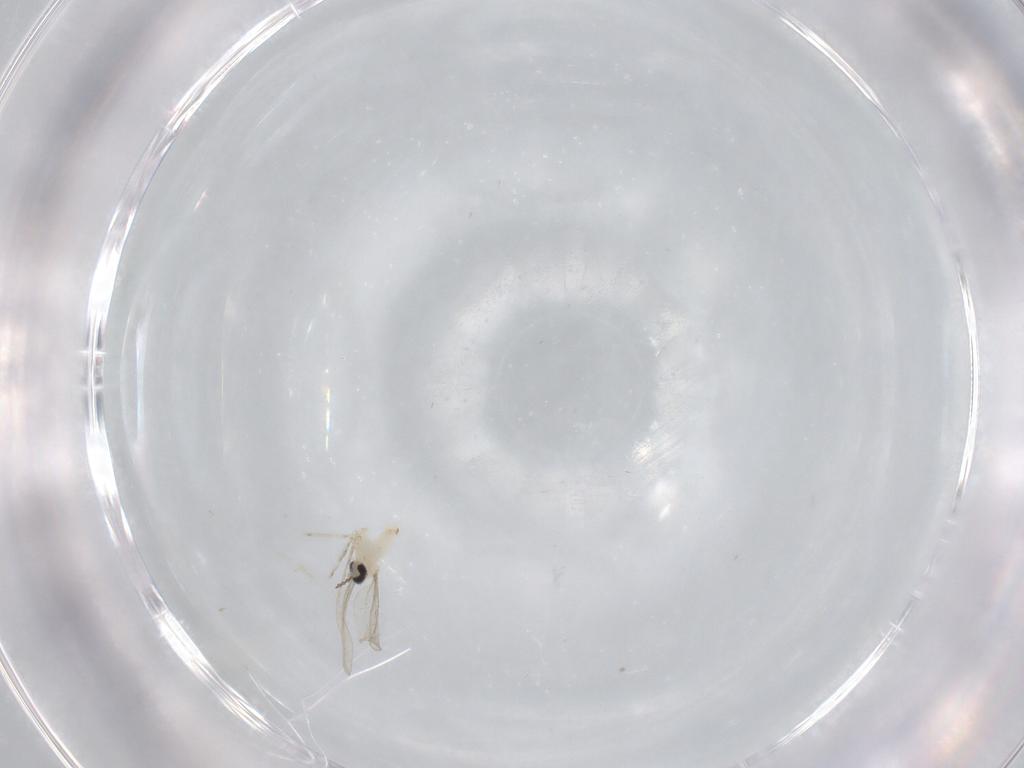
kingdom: Animalia
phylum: Arthropoda
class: Insecta
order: Diptera
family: Cecidomyiidae
